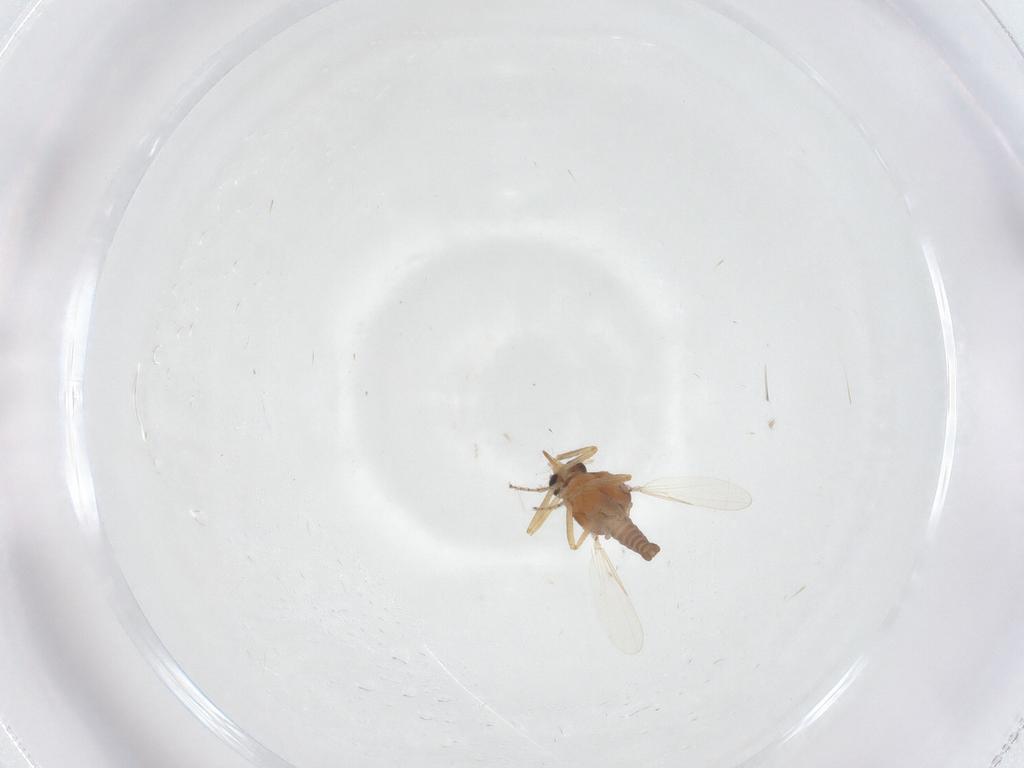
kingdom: Animalia
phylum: Arthropoda
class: Insecta
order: Diptera
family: Ceratopogonidae
